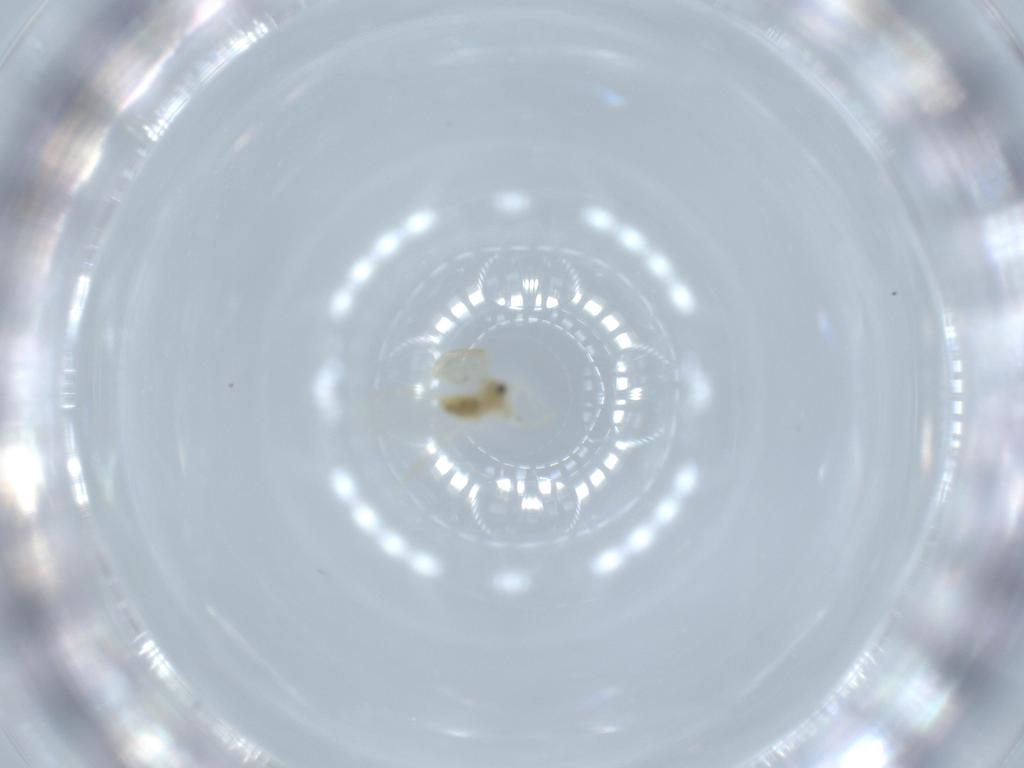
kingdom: Animalia
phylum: Arthropoda
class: Insecta
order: Hemiptera
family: Aleyrodidae
